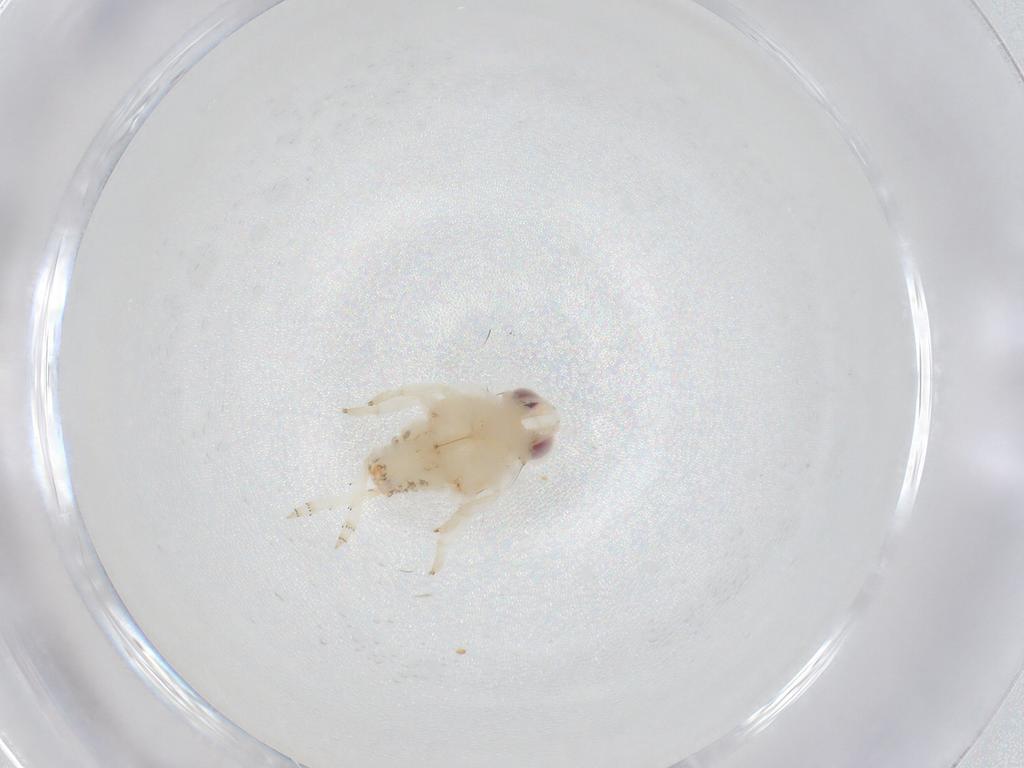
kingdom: Animalia
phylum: Arthropoda
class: Insecta
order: Hemiptera
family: Nogodinidae
